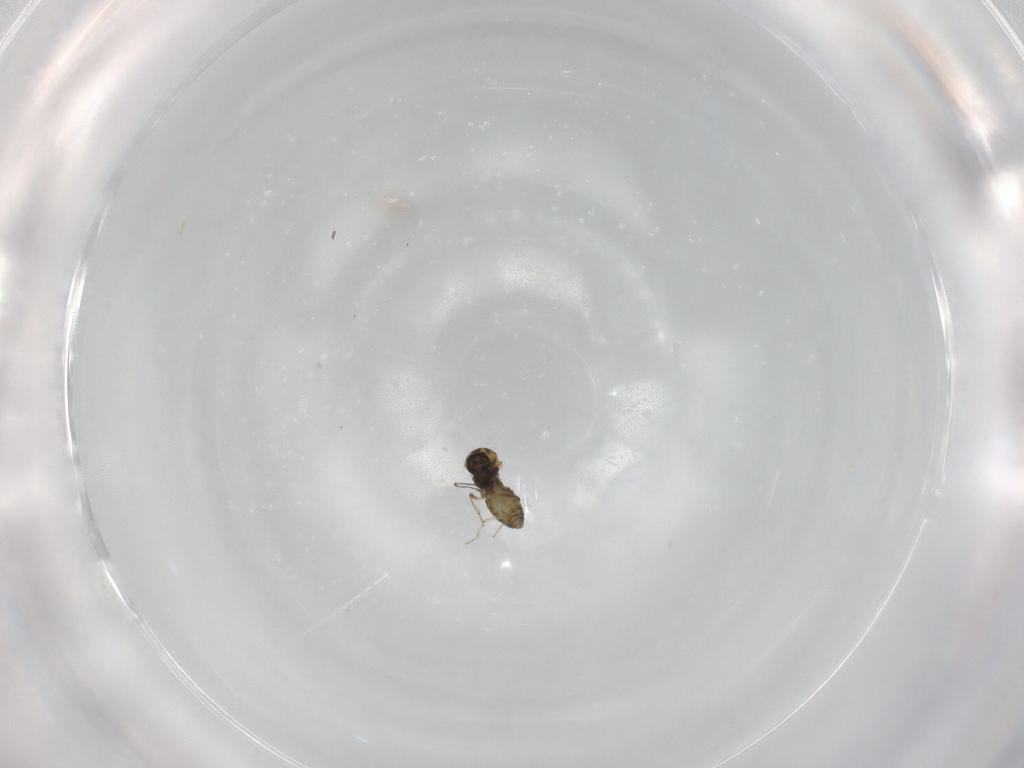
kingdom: Animalia
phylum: Arthropoda
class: Insecta
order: Diptera
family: Ceratopogonidae
